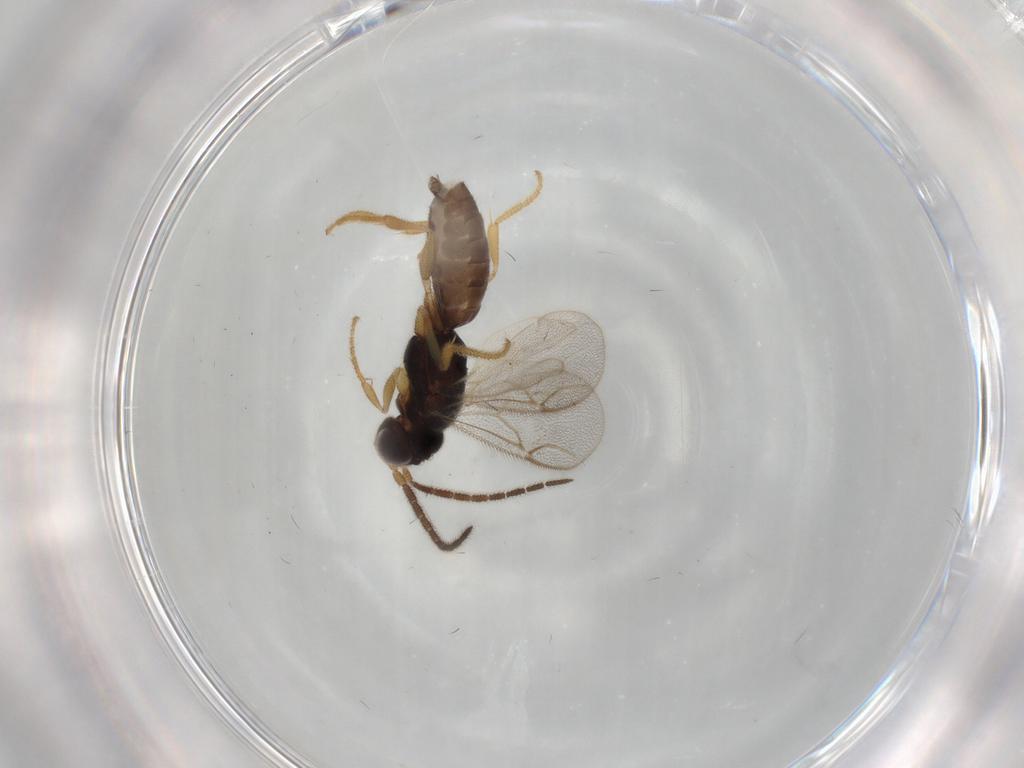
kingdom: Animalia
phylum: Arthropoda
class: Insecta
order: Hymenoptera
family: Dryinidae
